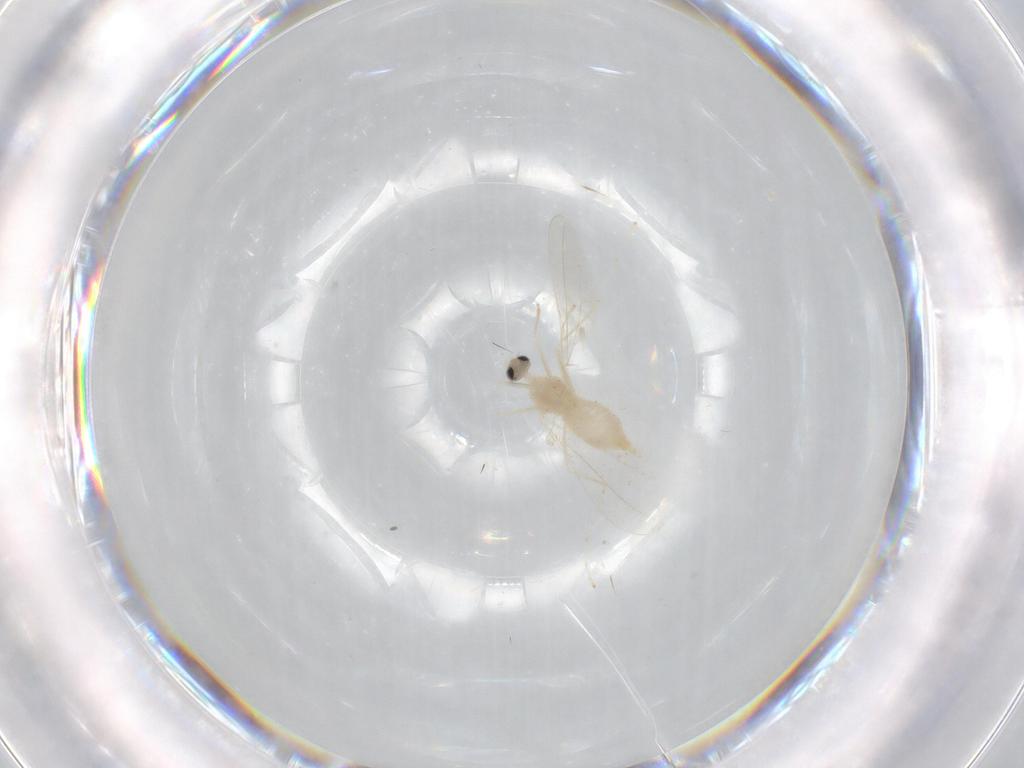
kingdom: Animalia
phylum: Arthropoda
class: Insecta
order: Diptera
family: Cecidomyiidae
